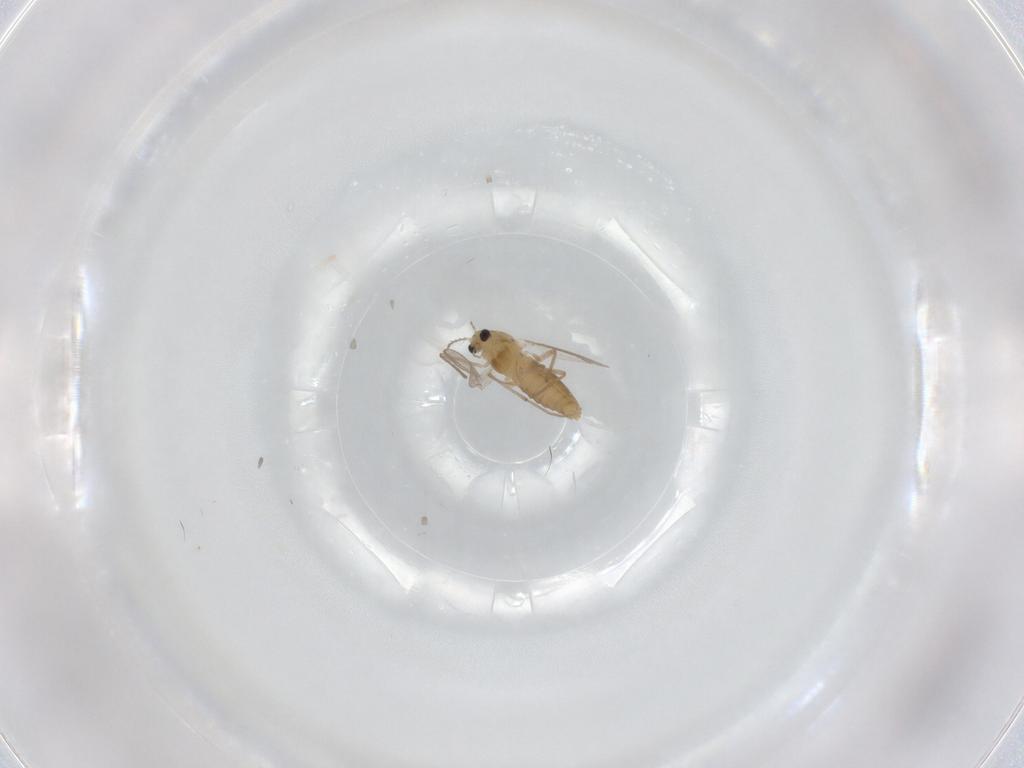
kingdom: Animalia
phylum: Arthropoda
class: Insecta
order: Diptera
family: Chironomidae
